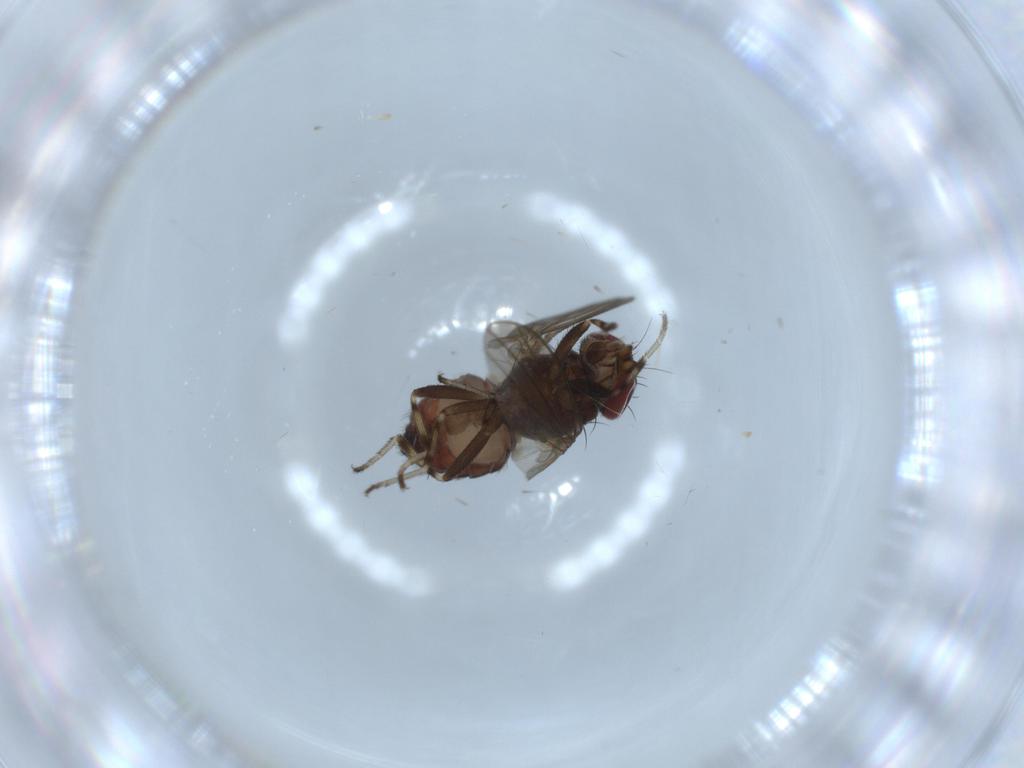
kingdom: Animalia
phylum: Arthropoda
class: Insecta
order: Diptera
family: Heleomyzidae
